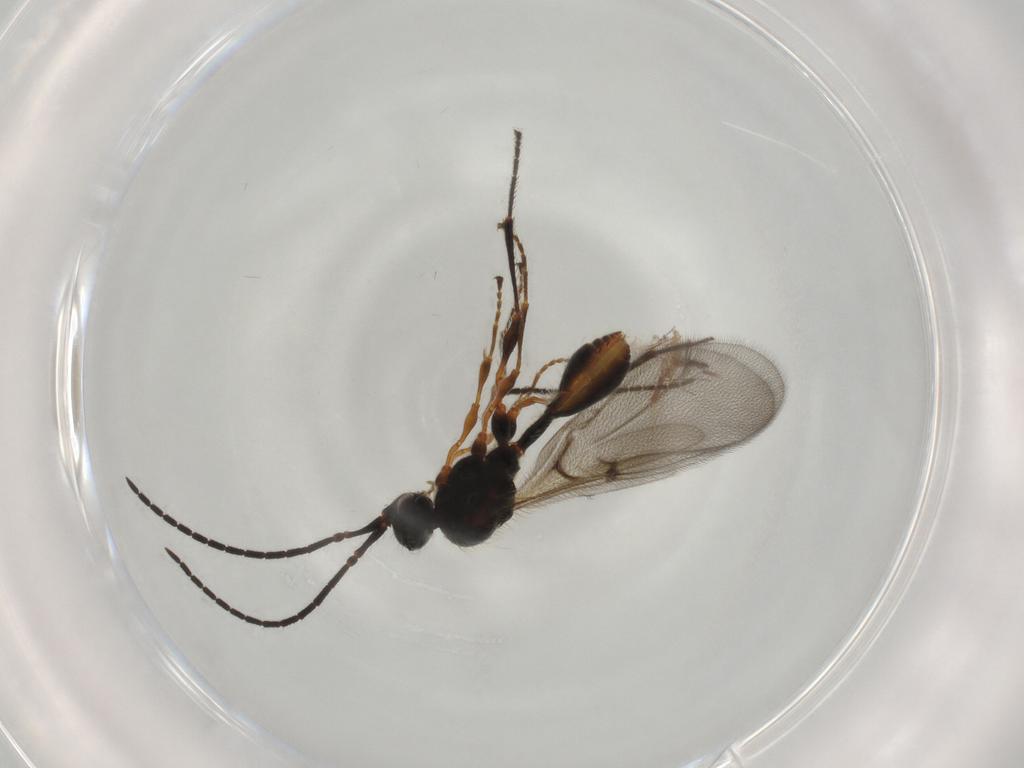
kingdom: Animalia
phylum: Arthropoda
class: Insecta
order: Hymenoptera
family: Diapriidae
